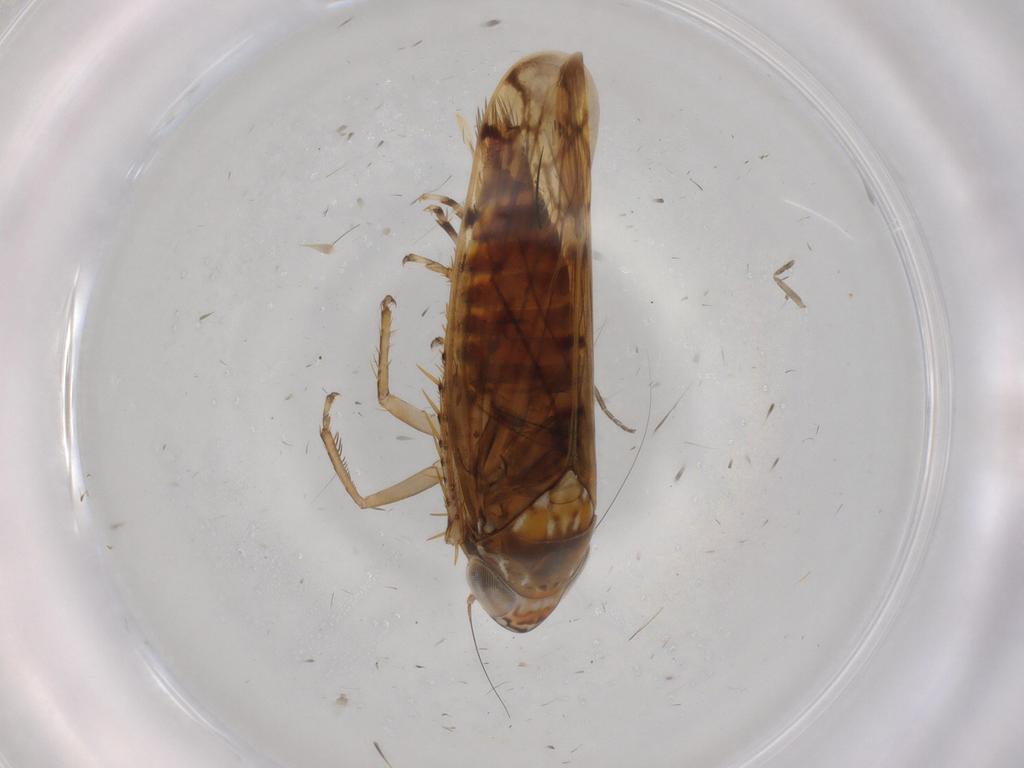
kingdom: Animalia
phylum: Arthropoda
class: Insecta
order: Hemiptera
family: Cicadellidae
